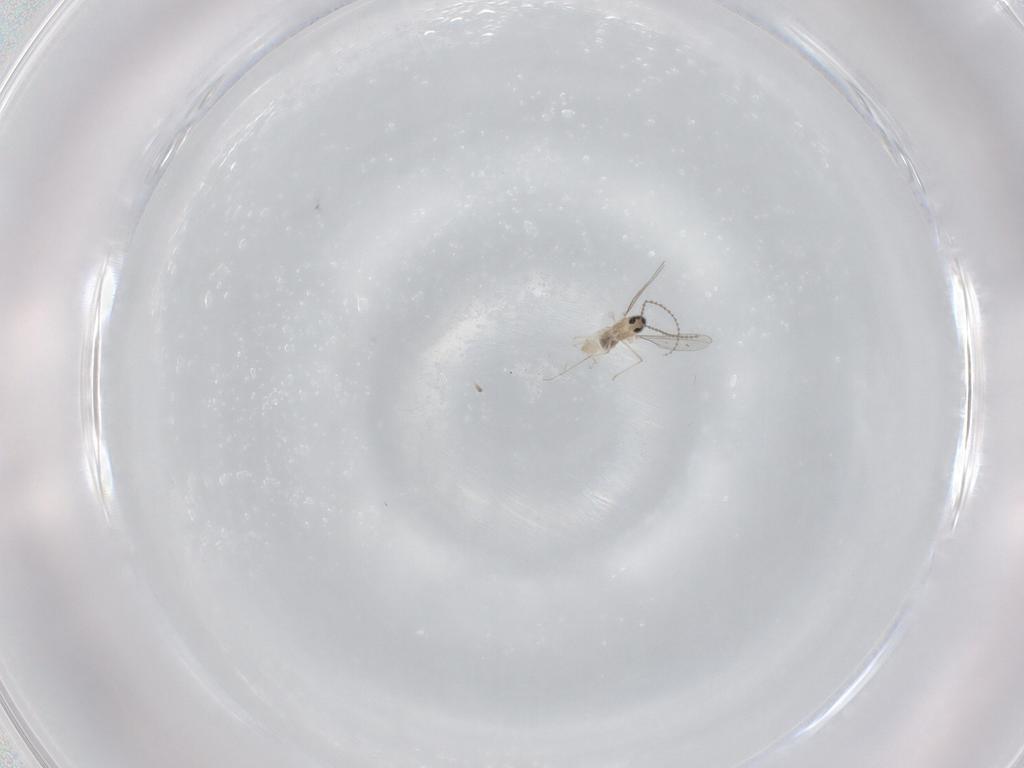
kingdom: Animalia
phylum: Arthropoda
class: Insecta
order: Diptera
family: Cecidomyiidae
